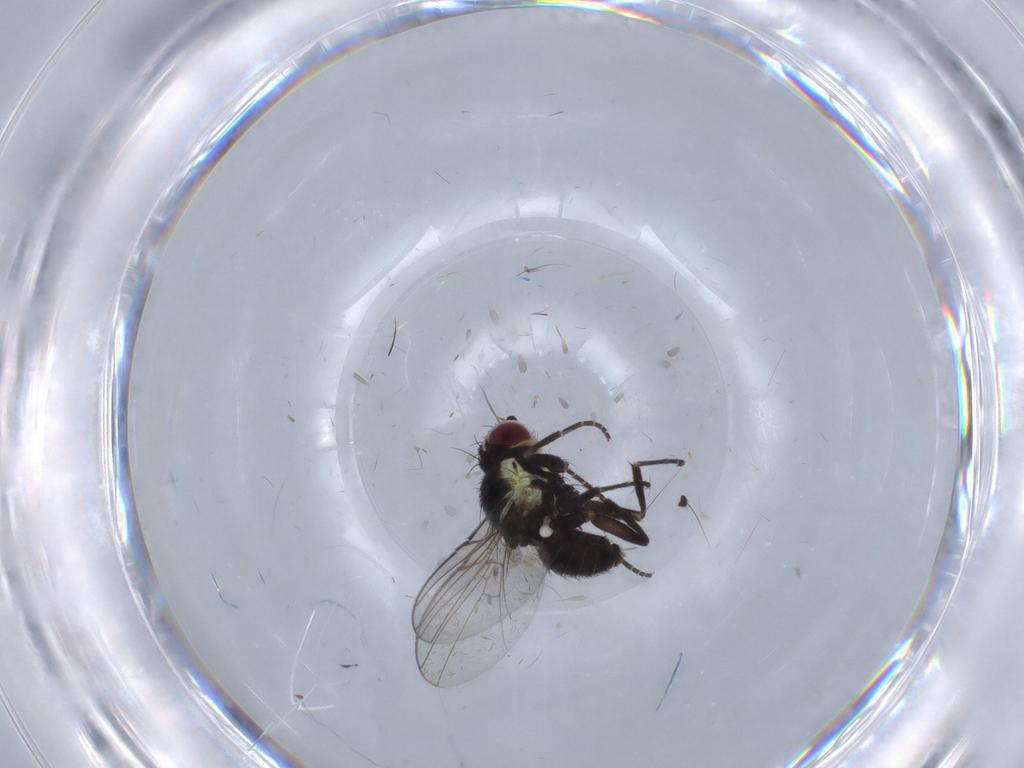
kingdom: Animalia
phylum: Arthropoda
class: Insecta
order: Diptera
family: Agromyzidae
